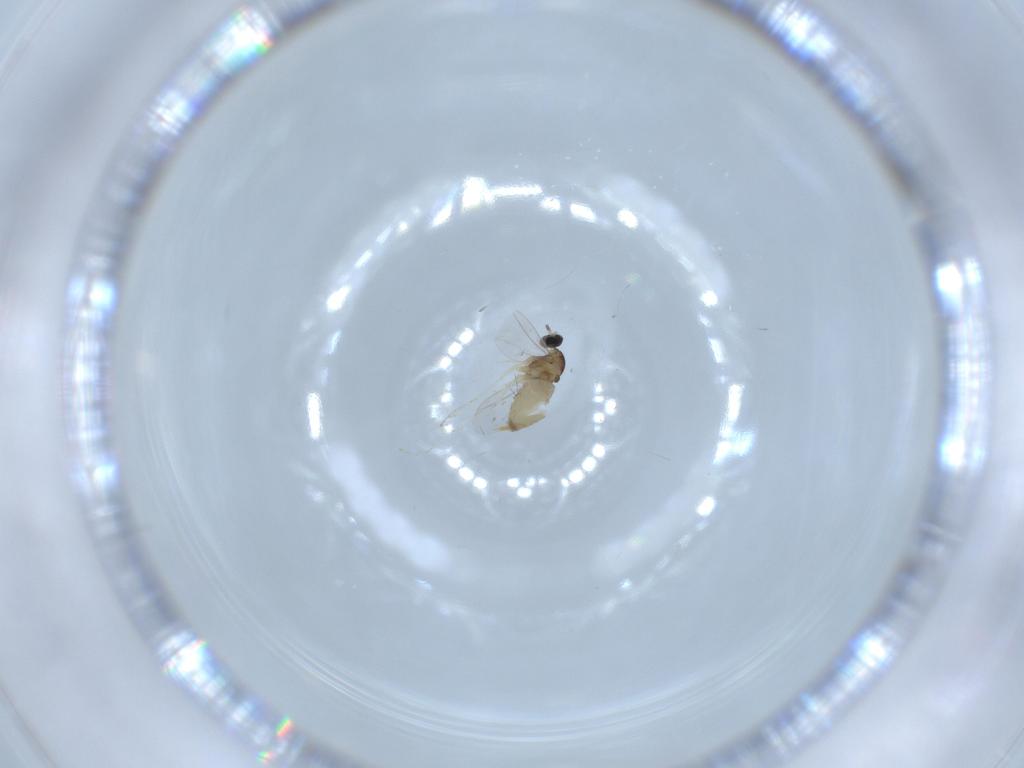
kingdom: Animalia
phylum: Arthropoda
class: Insecta
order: Diptera
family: Cecidomyiidae
